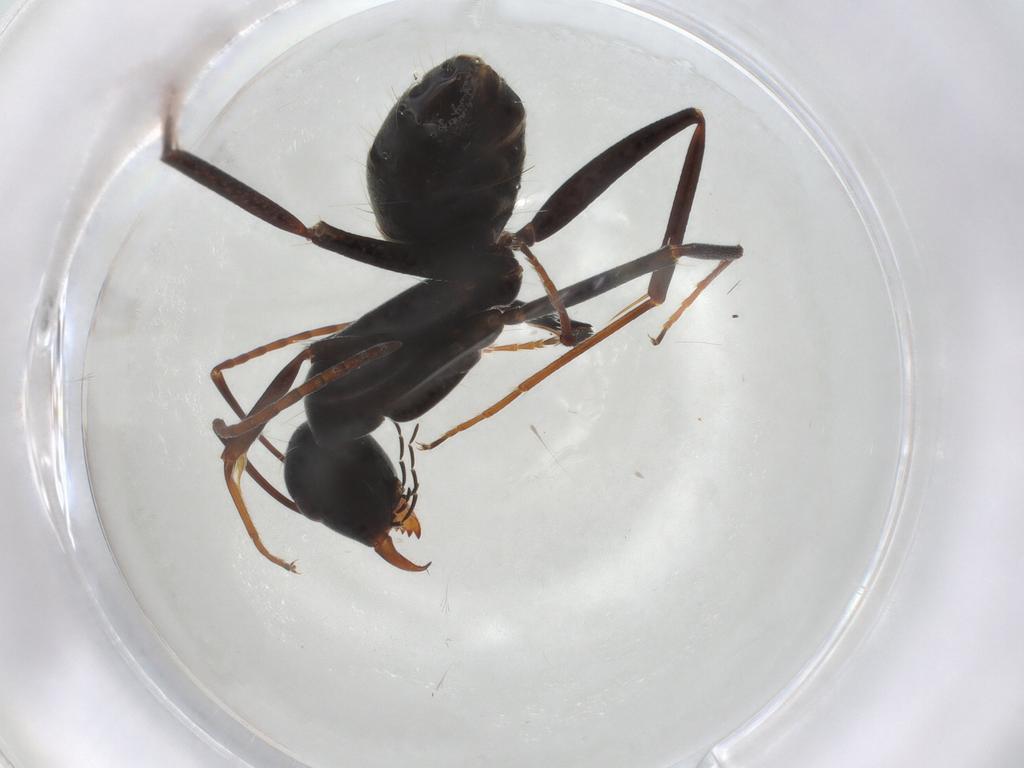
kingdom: Animalia
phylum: Arthropoda
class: Insecta
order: Hymenoptera
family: Formicidae
